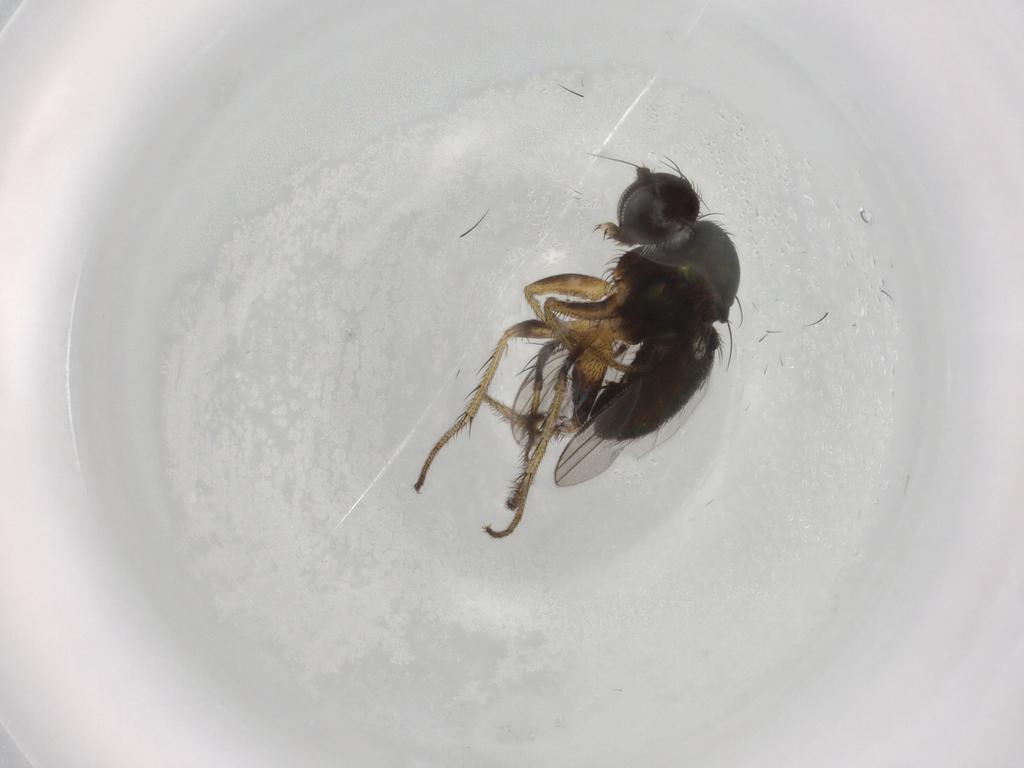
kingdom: Animalia
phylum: Arthropoda
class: Insecta
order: Diptera
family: Dolichopodidae
